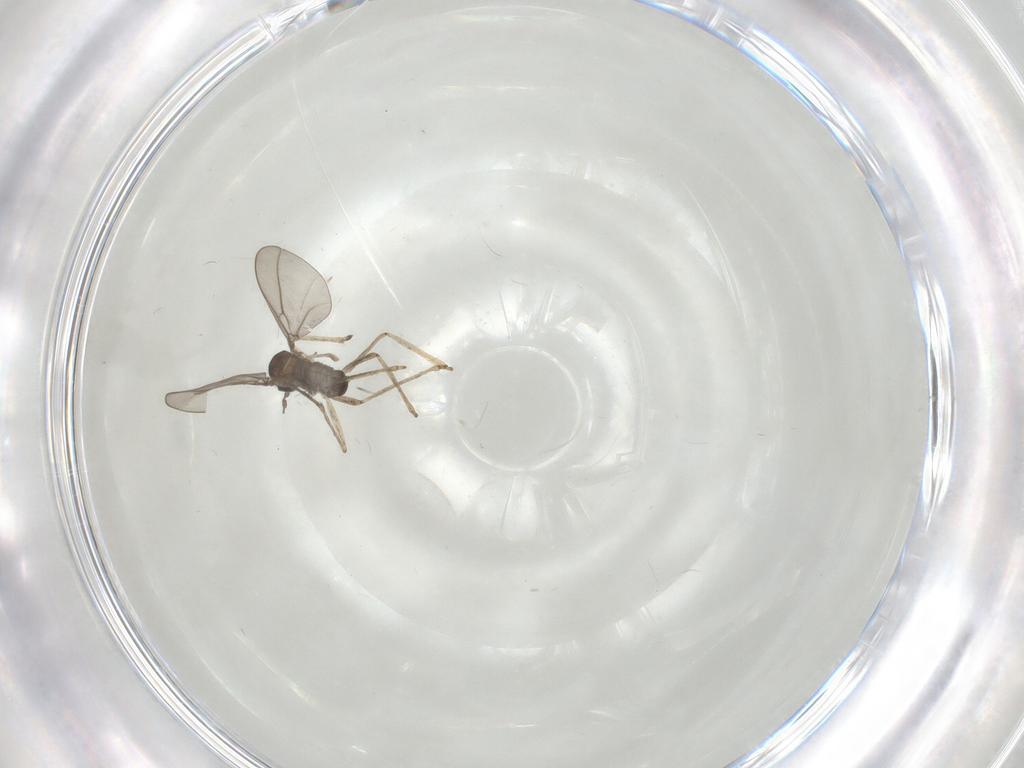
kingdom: Animalia
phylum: Arthropoda
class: Insecta
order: Diptera
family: Cecidomyiidae
